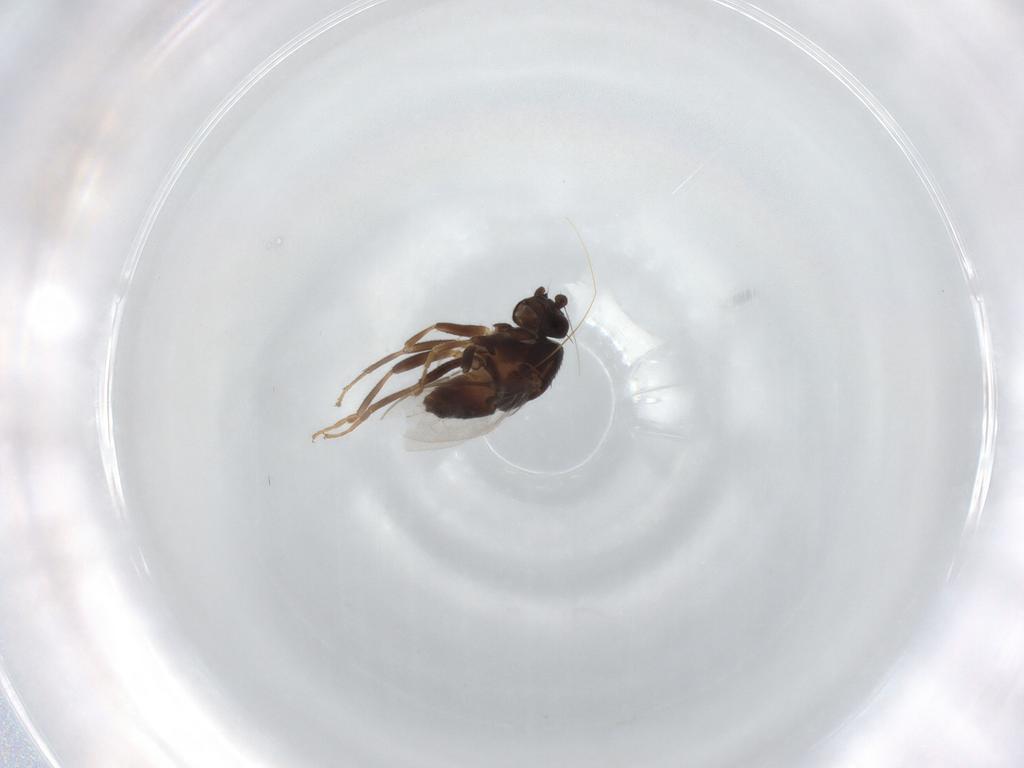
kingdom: Animalia
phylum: Arthropoda
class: Insecta
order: Diptera
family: Sphaeroceridae
